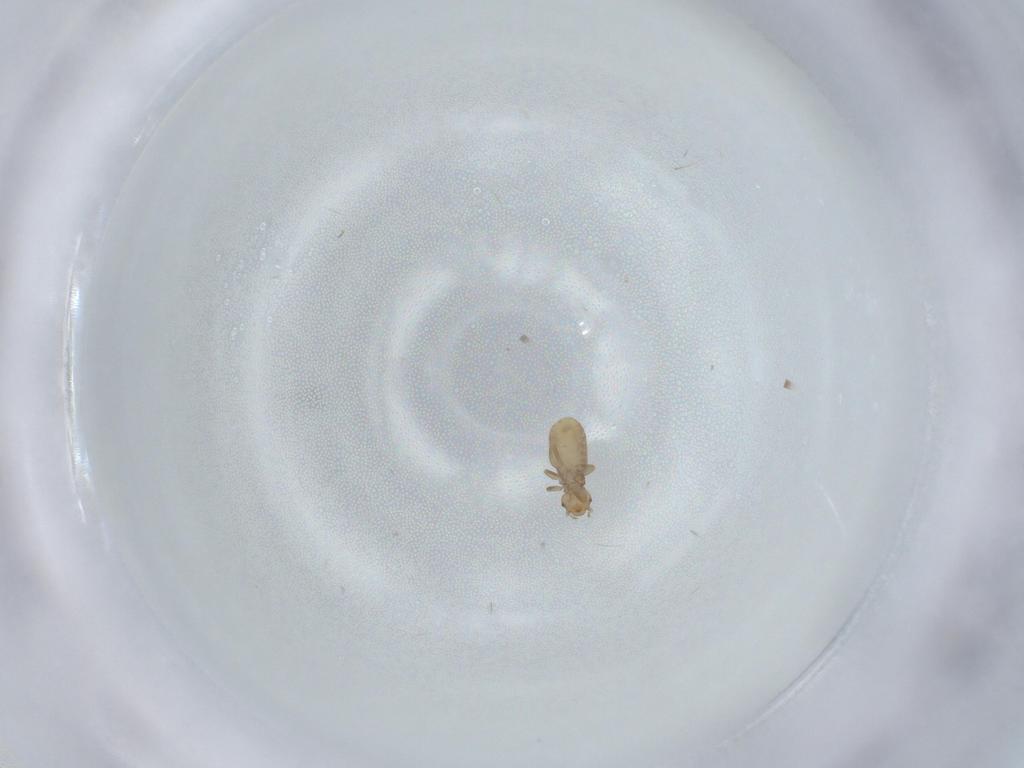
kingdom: Animalia
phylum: Arthropoda
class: Insecta
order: Psocodea
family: Liposcelididae
